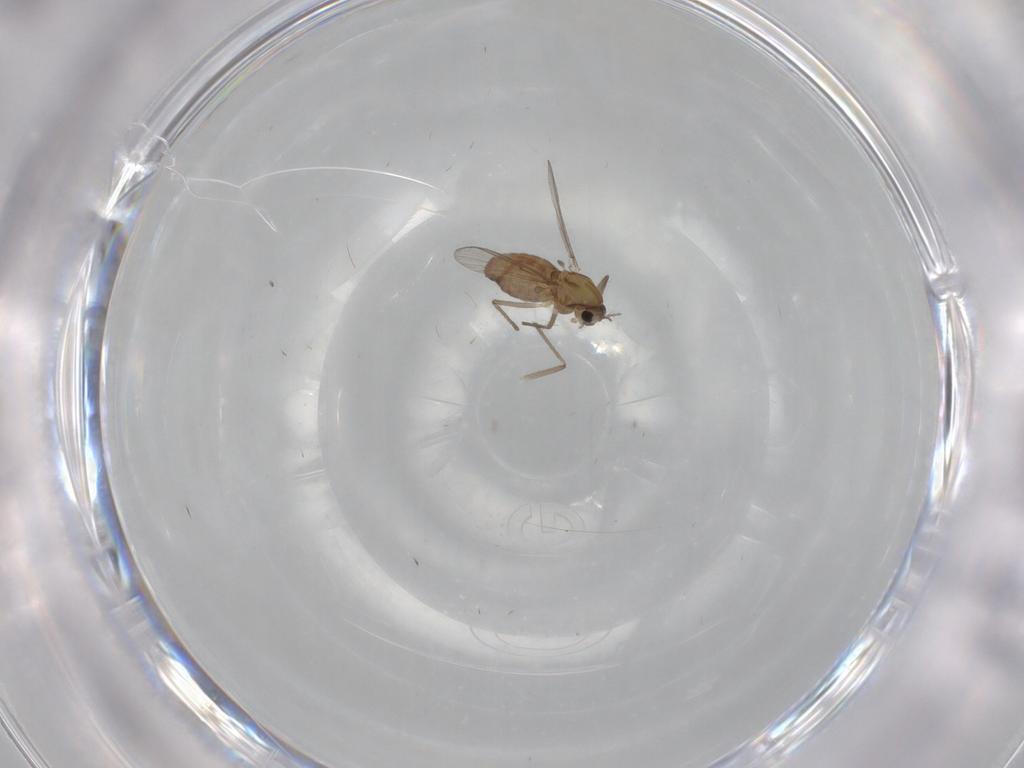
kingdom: Animalia
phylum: Arthropoda
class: Insecta
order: Diptera
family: Chironomidae
